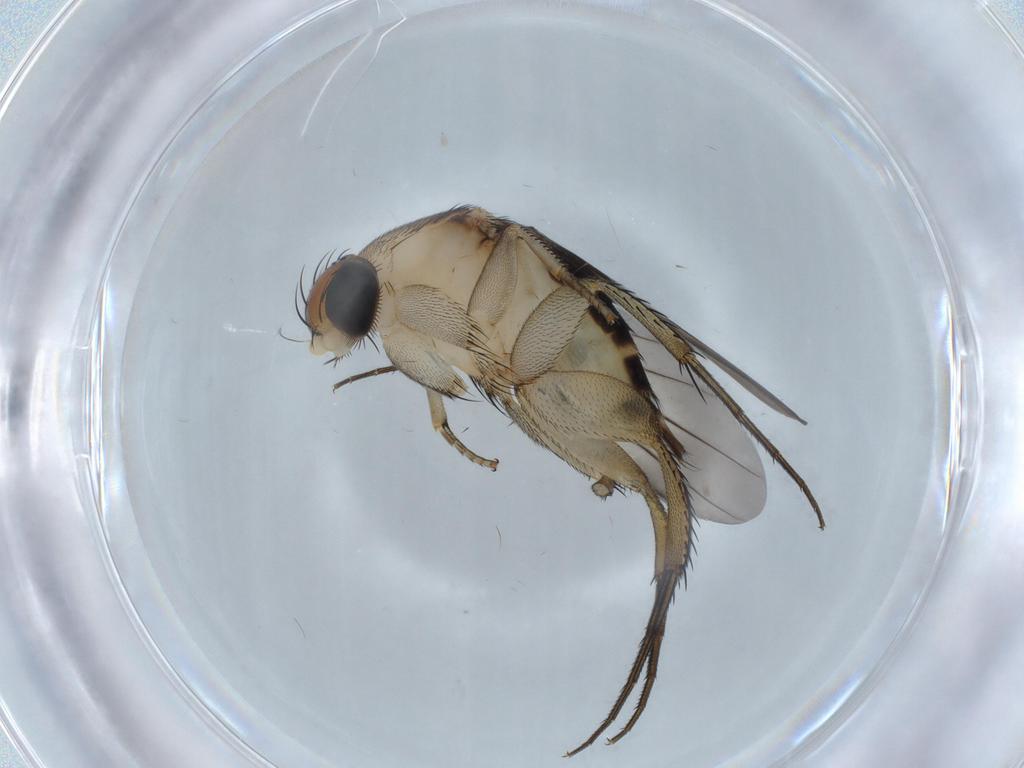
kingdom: Animalia
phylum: Arthropoda
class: Insecta
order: Diptera
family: Phoridae
